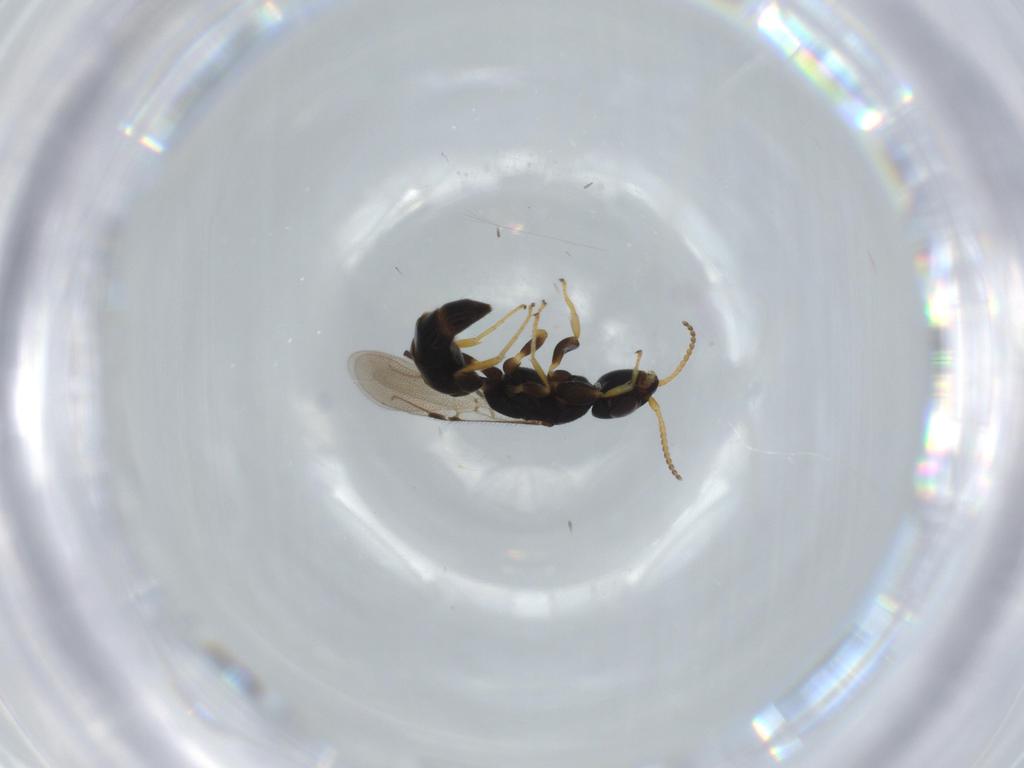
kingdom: Animalia
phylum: Arthropoda
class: Insecta
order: Hymenoptera
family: Bethylidae
